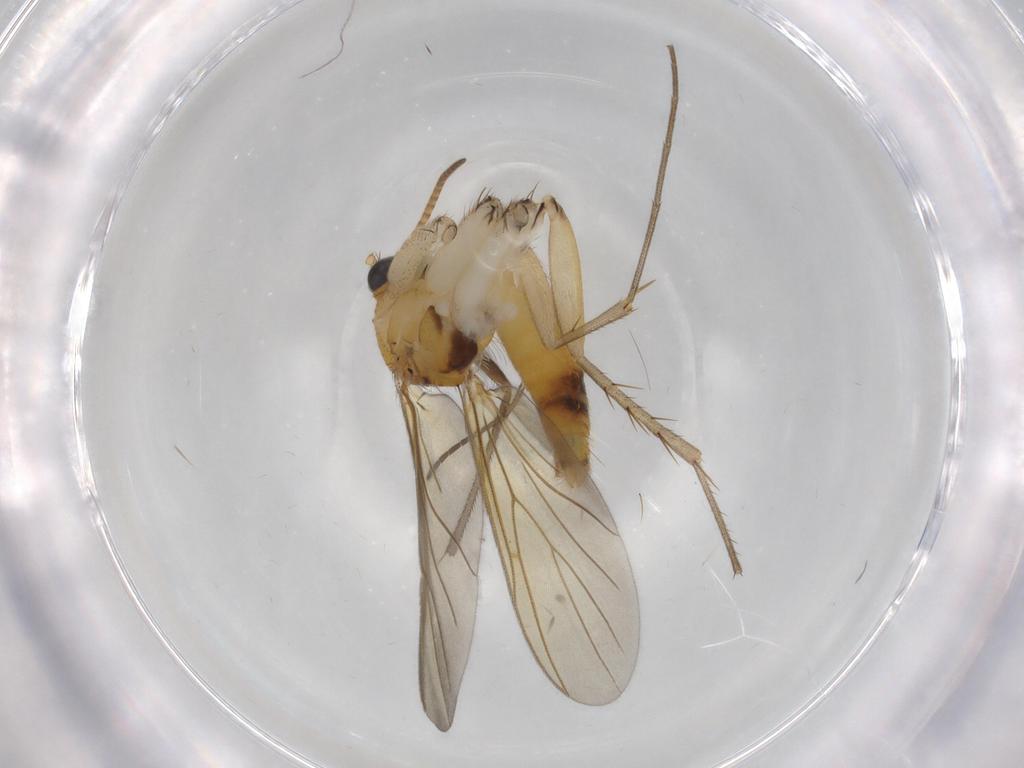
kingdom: Animalia
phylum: Arthropoda
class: Insecta
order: Diptera
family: Mycetophilidae
